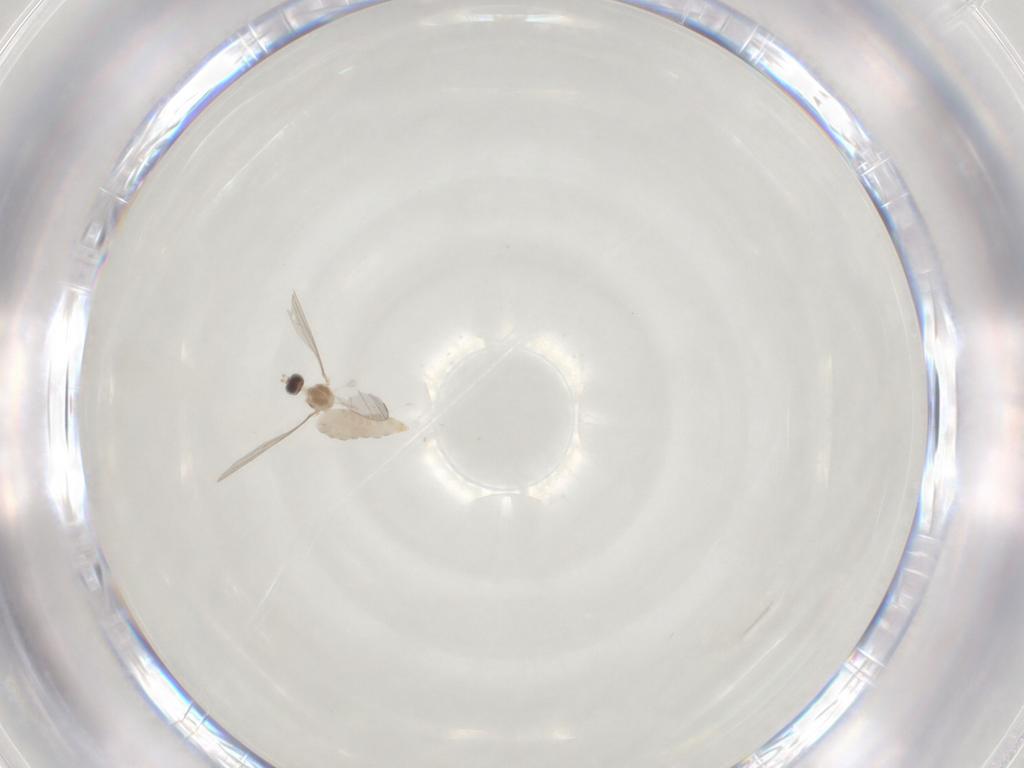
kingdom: Animalia
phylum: Arthropoda
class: Insecta
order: Diptera
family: Cecidomyiidae
